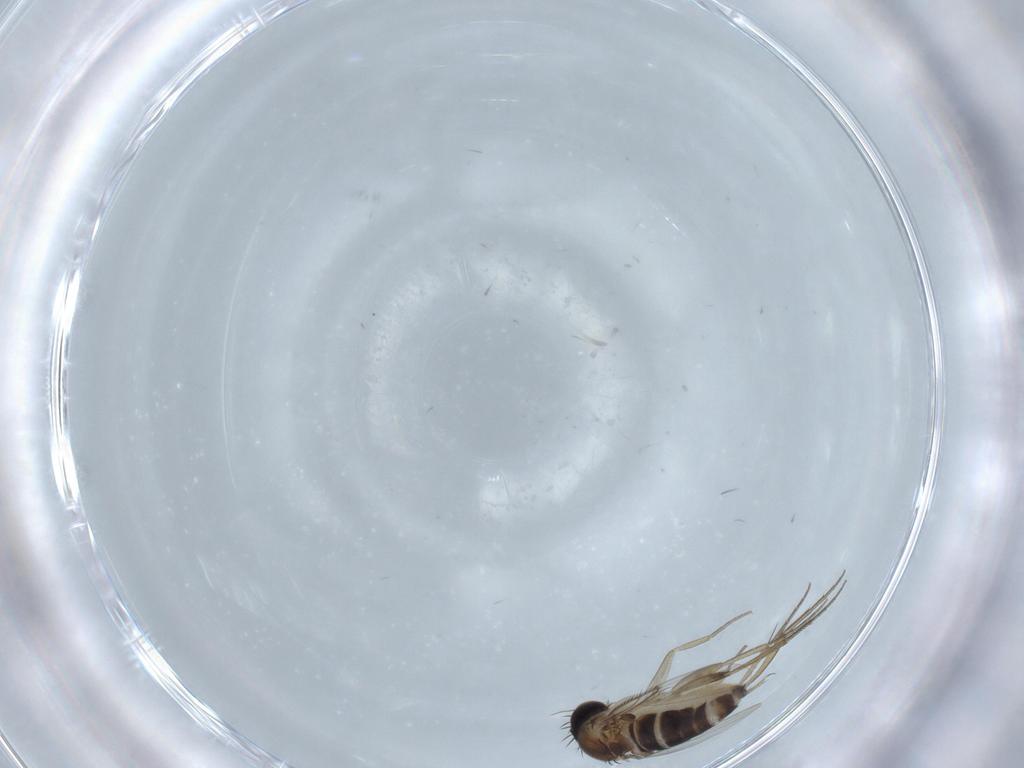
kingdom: Animalia
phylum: Arthropoda
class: Insecta
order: Diptera
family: Phoridae
